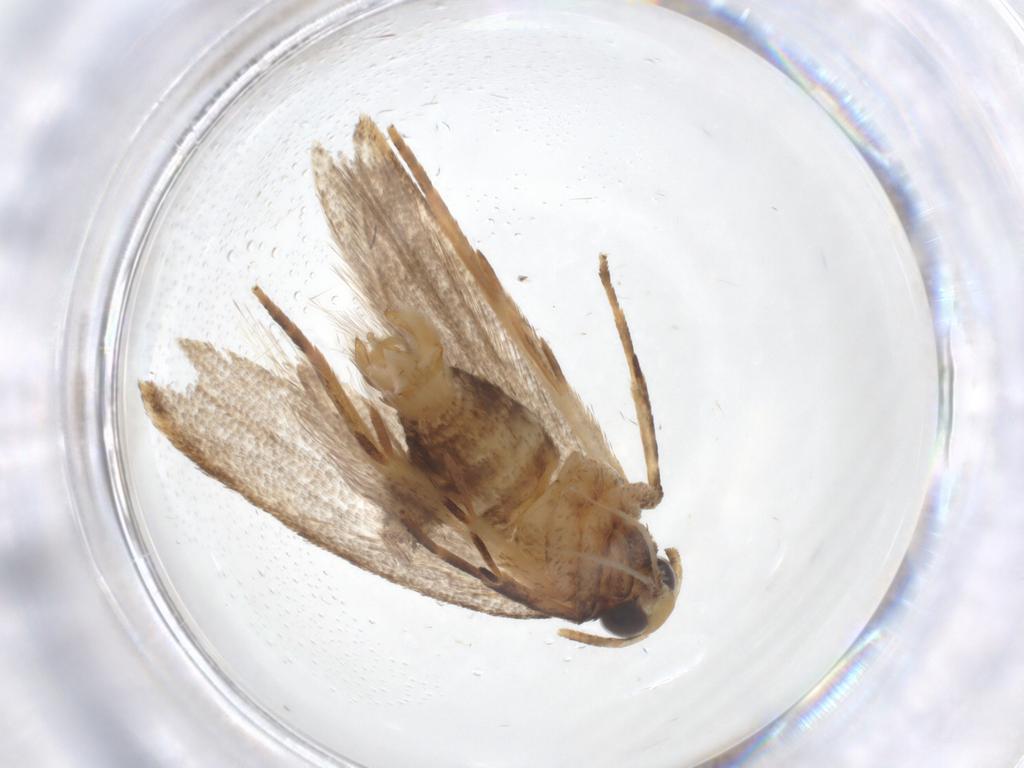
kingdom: Animalia
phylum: Arthropoda
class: Insecta
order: Lepidoptera
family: Oecophoridae
